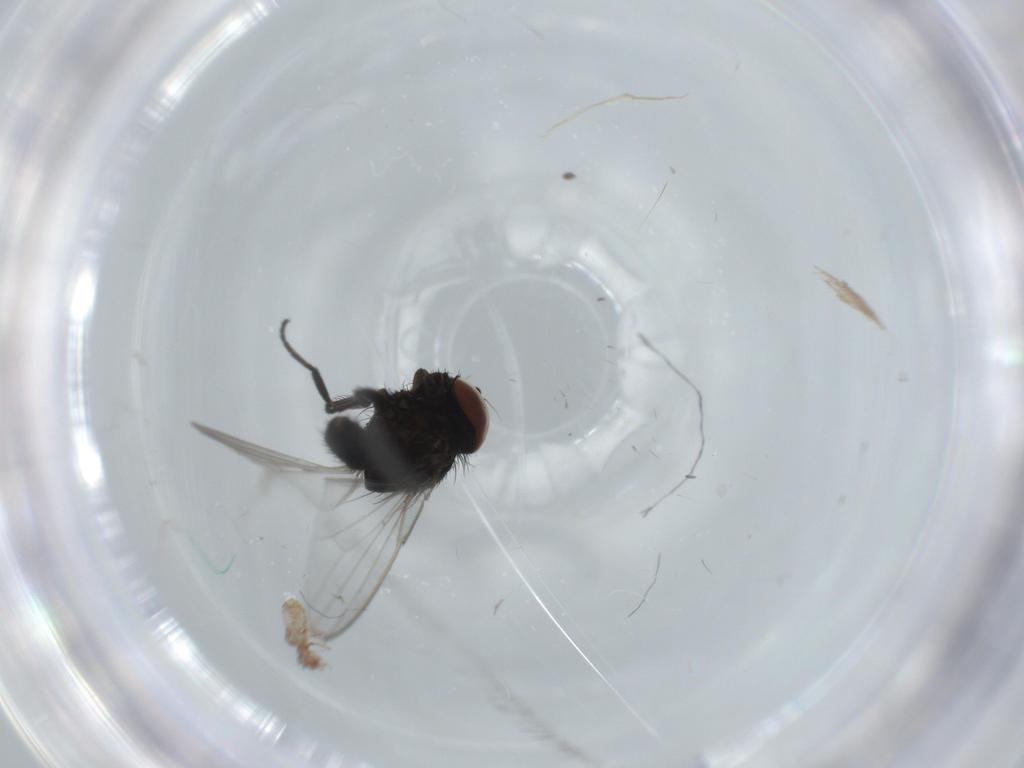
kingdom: Animalia
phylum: Arthropoda
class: Insecta
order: Diptera
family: Milichiidae
